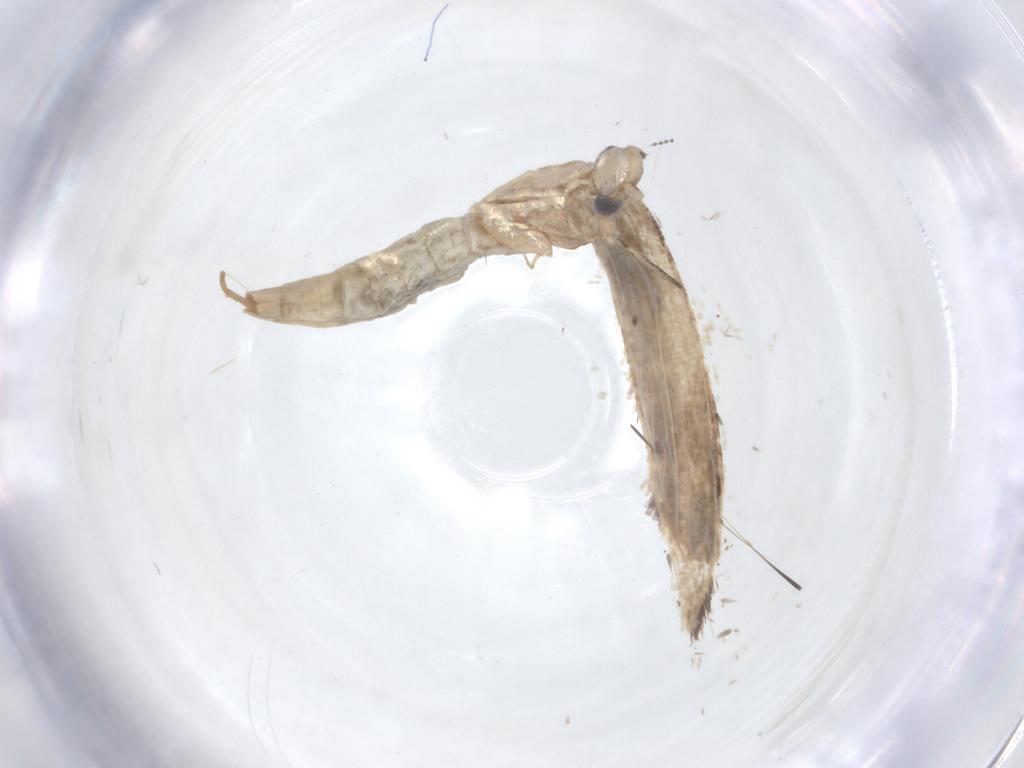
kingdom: Animalia
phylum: Arthropoda
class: Insecta
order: Lepidoptera
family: Tineidae
